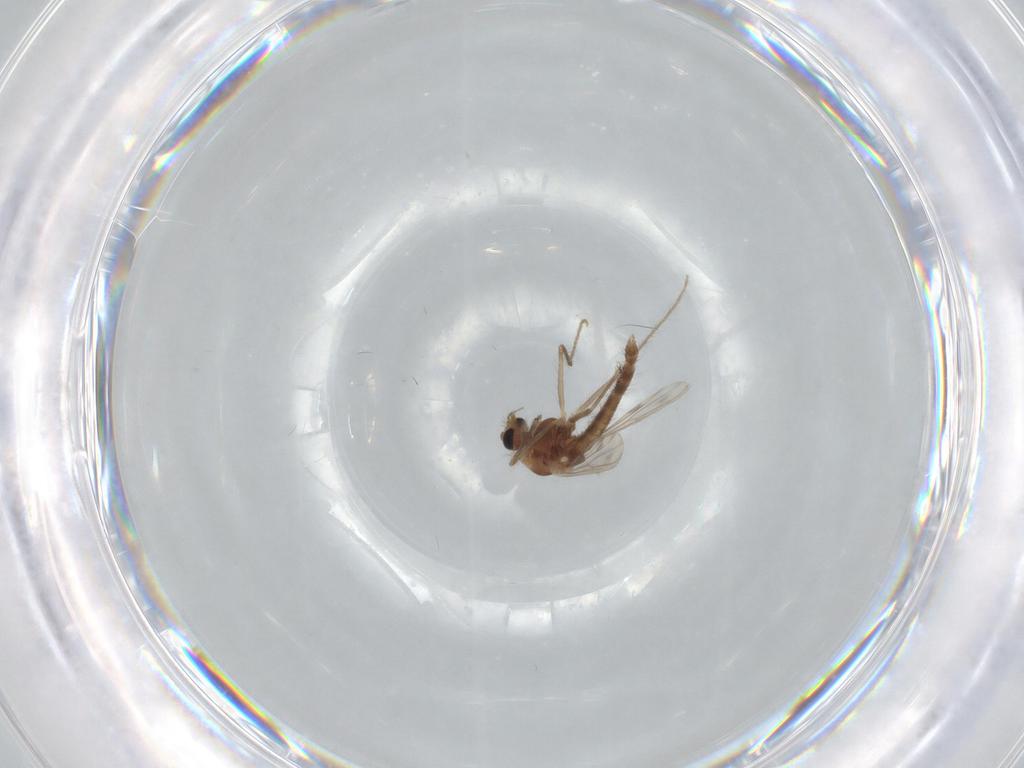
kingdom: Animalia
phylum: Arthropoda
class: Insecta
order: Diptera
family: Chironomidae
